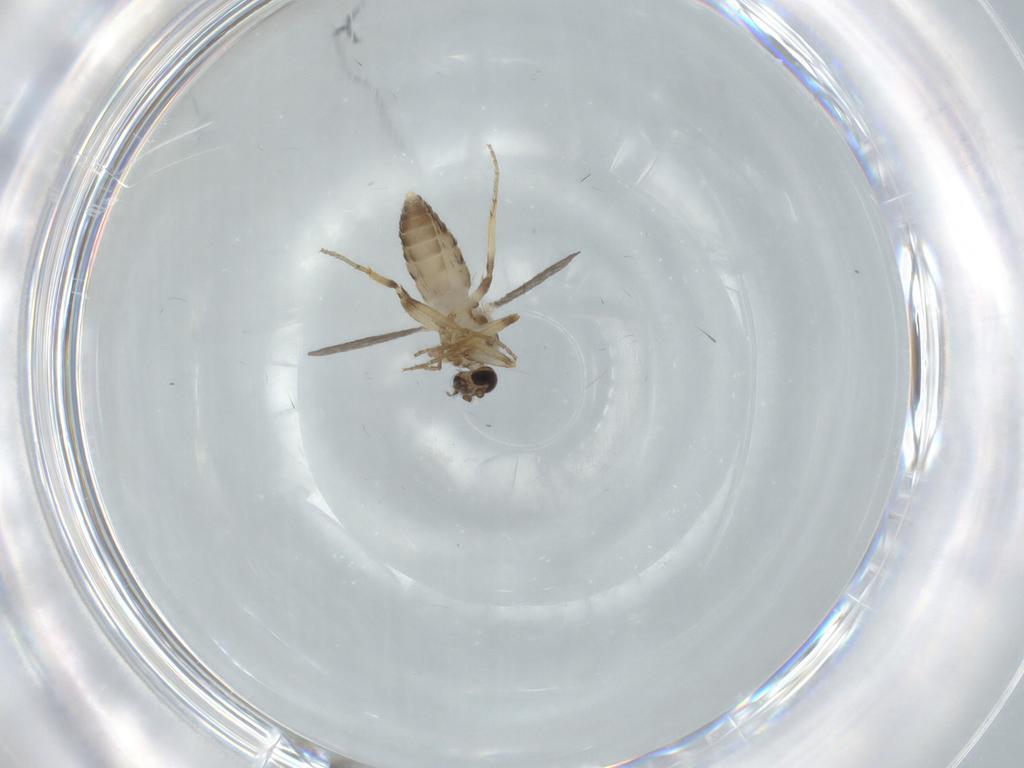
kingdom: Animalia
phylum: Arthropoda
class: Insecta
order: Diptera
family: Ceratopogonidae
